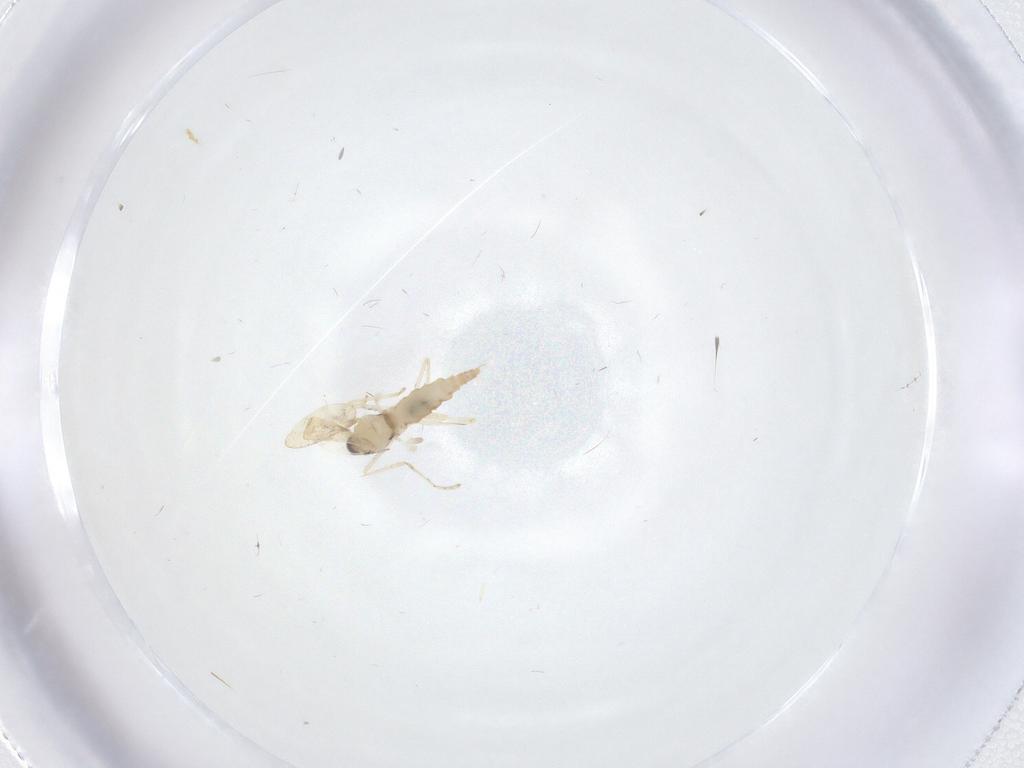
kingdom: Animalia
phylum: Arthropoda
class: Insecta
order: Diptera
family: Cecidomyiidae
